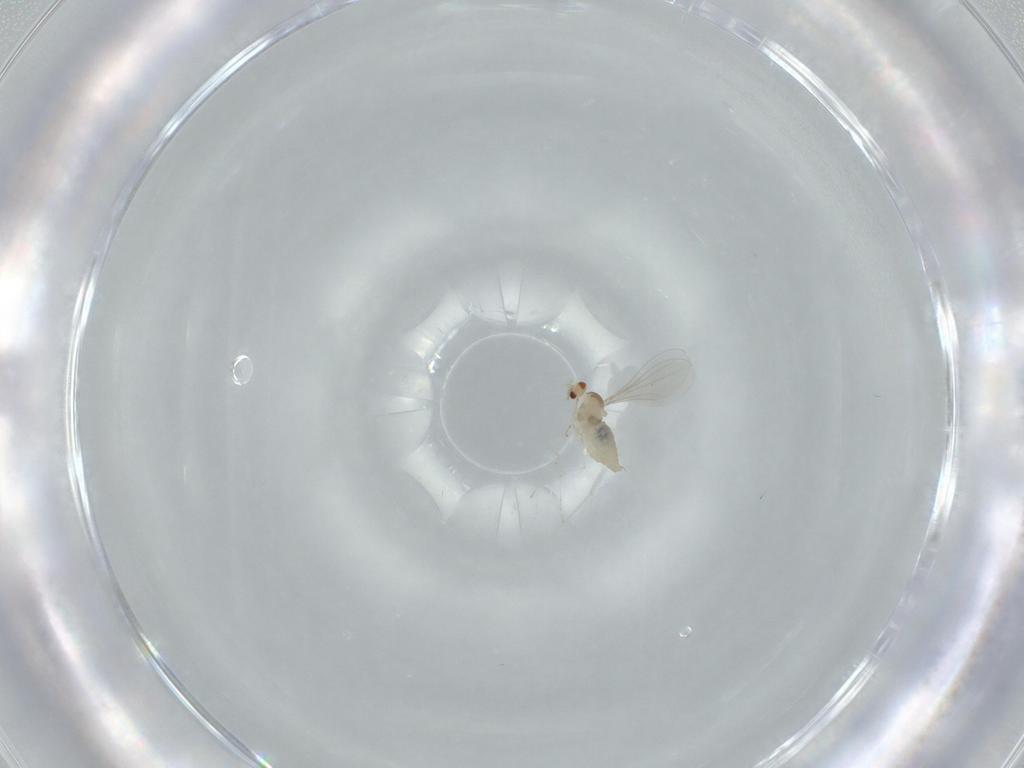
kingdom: Animalia
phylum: Arthropoda
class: Insecta
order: Diptera
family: Cecidomyiidae
